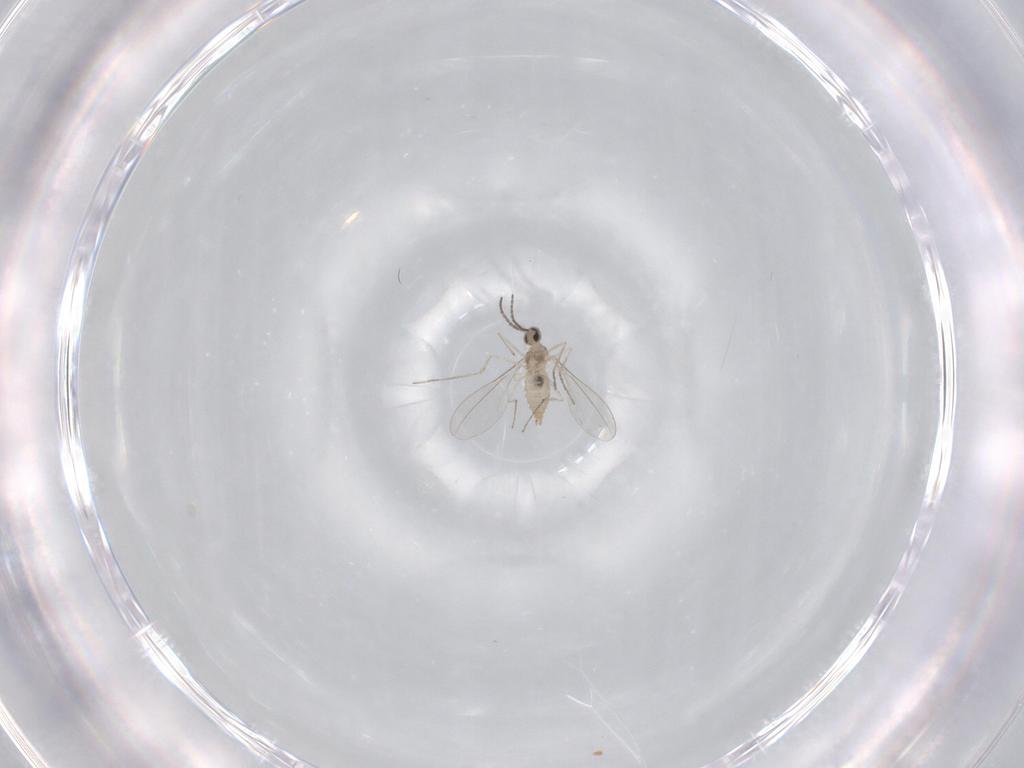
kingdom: Animalia
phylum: Arthropoda
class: Insecta
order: Diptera
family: Cecidomyiidae
